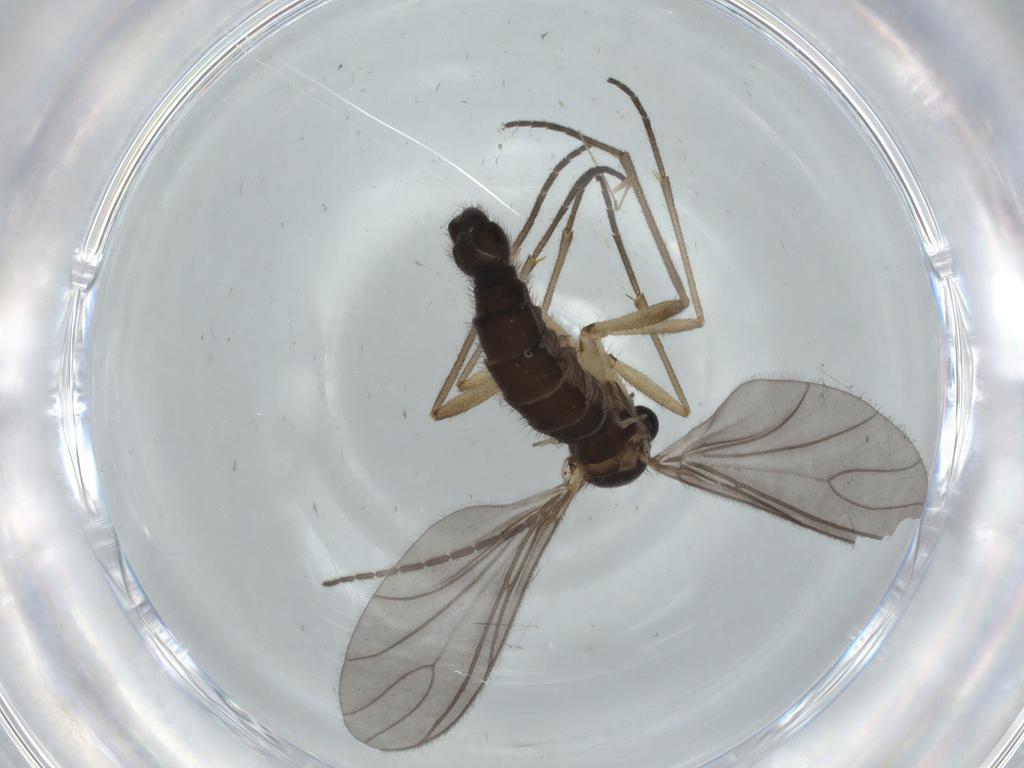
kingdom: Animalia
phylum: Arthropoda
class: Insecta
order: Diptera
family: Sciaridae
